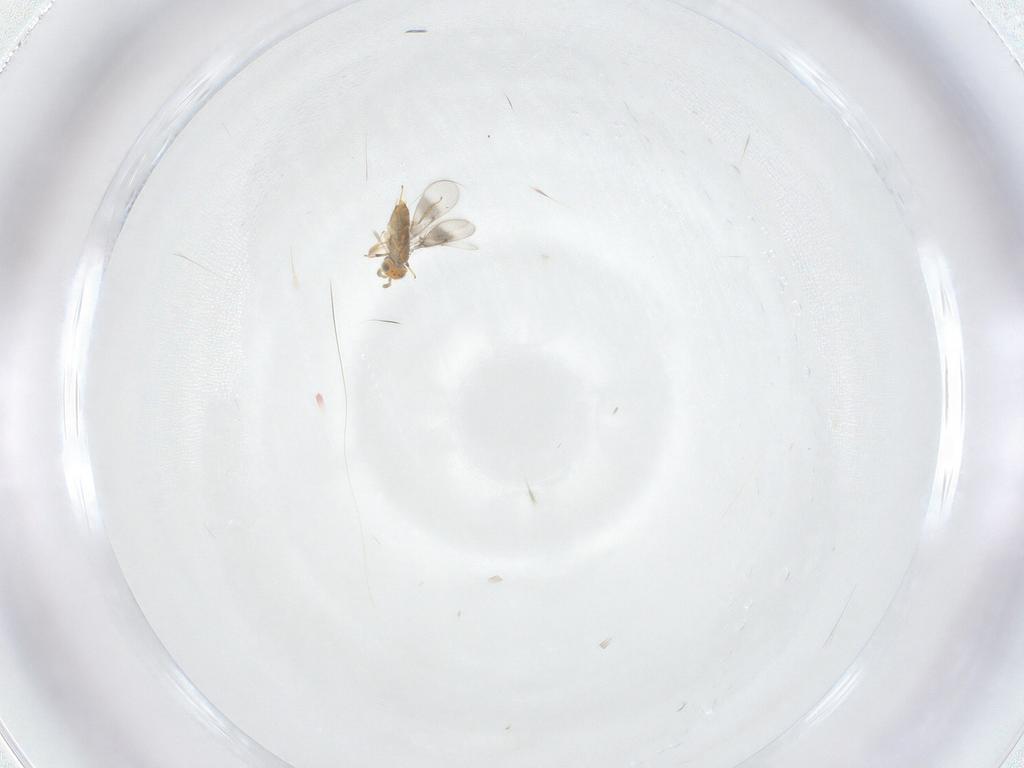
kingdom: Animalia
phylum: Arthropoda
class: Insecta
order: Hymenoptera
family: Aphelinidae
